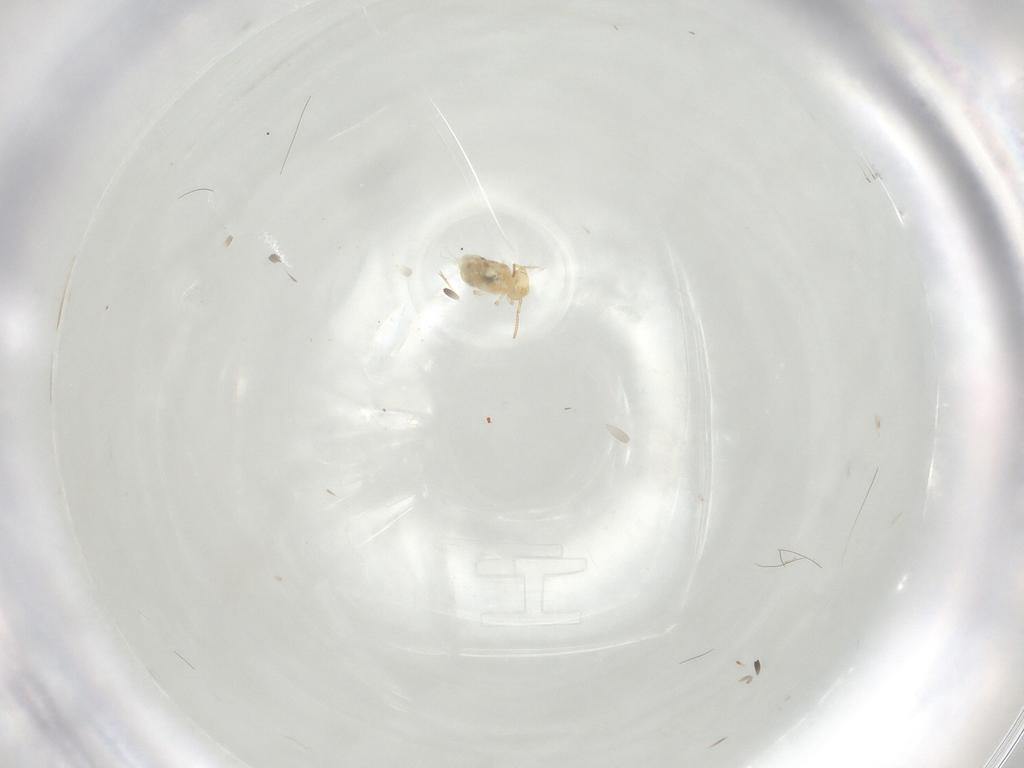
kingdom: Animalia
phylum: Arthropoda
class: Collembola
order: Symphypleona
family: Bourletiellidae
